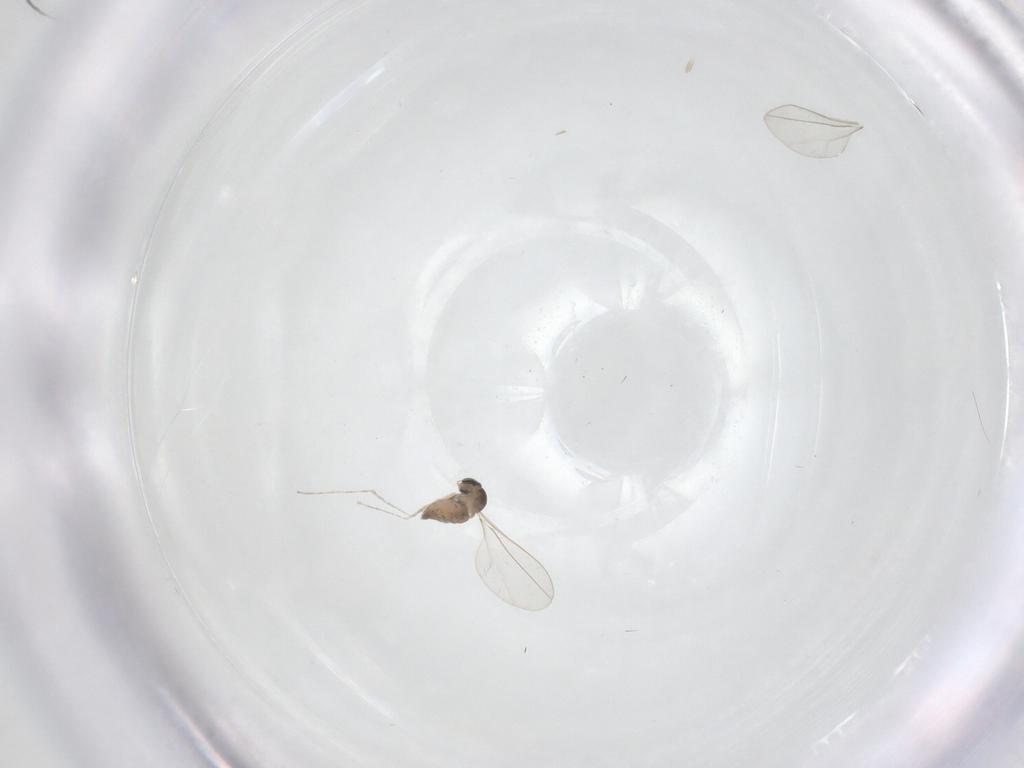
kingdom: Animalia
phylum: Arthropoda
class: Insecta
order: Diptera
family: Cecidomyiidae
